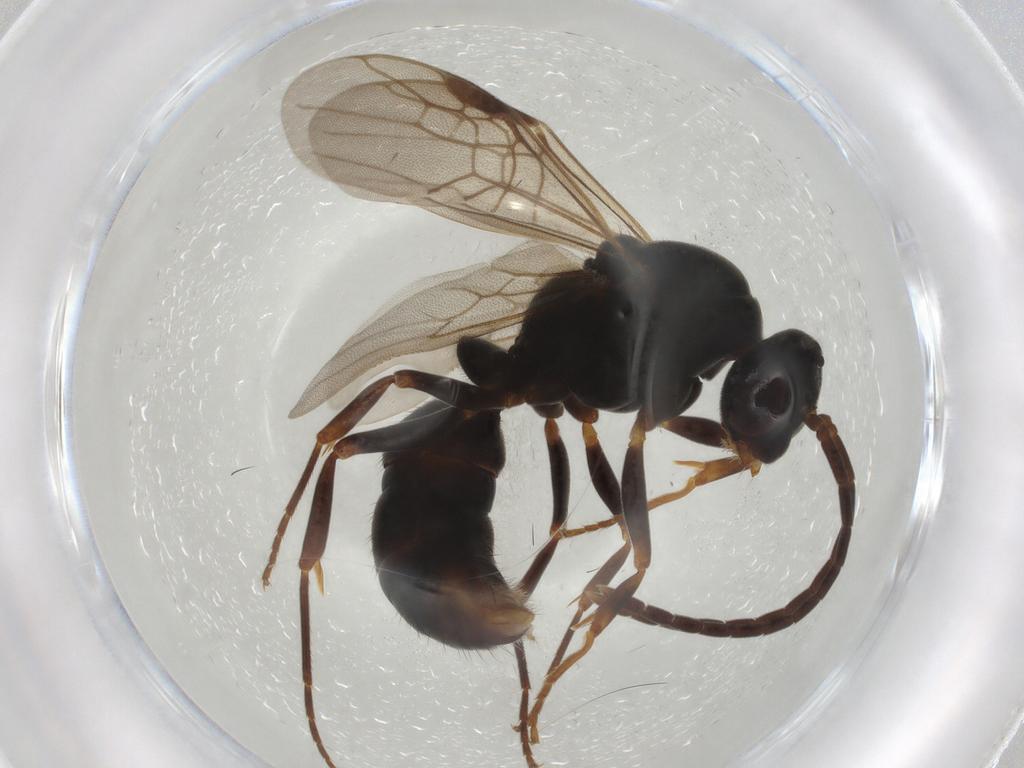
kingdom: Animalia
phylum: Arthropoda
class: Insecta
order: Hymenoptera
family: Formicidae
